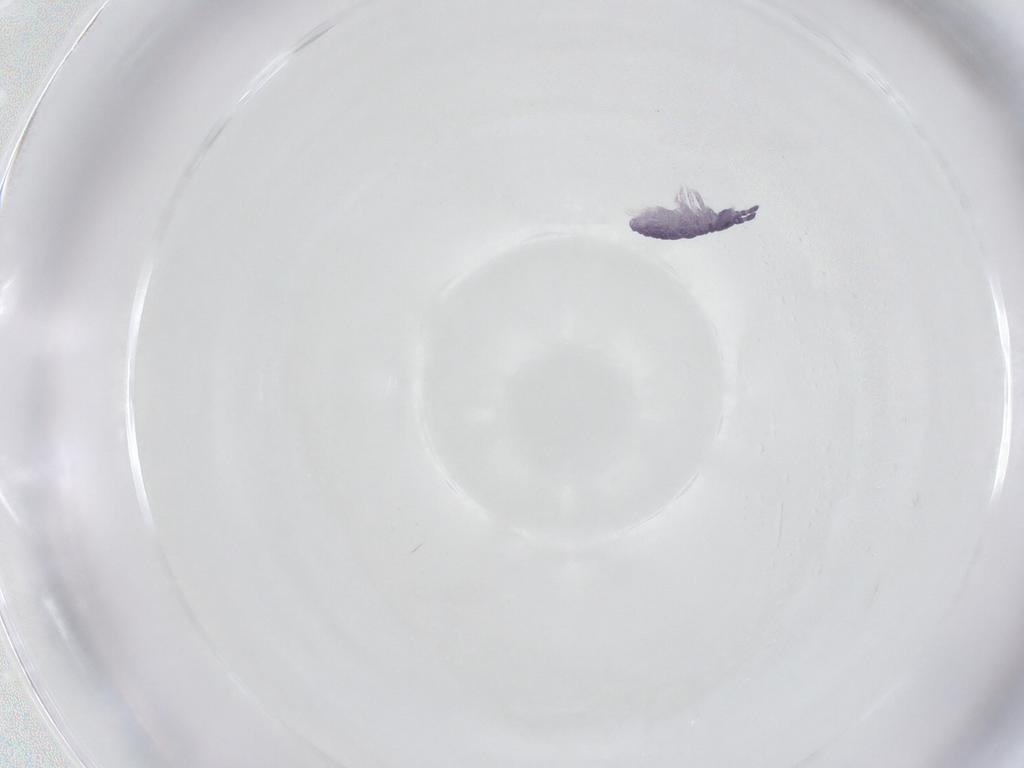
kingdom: Animalia
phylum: Arthropoda
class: Collembola
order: Poduromorpha
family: Neanuridae
